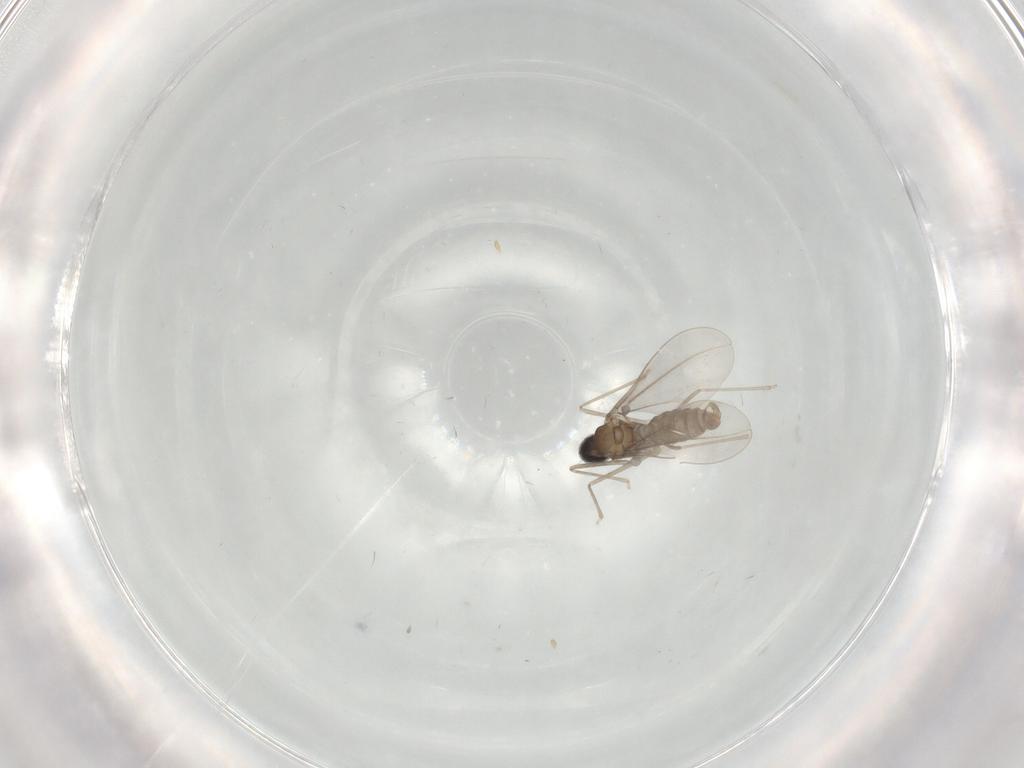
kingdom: Animalia
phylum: Arthropoda
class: Insecta
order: Diptera
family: Cecidomyiidae
